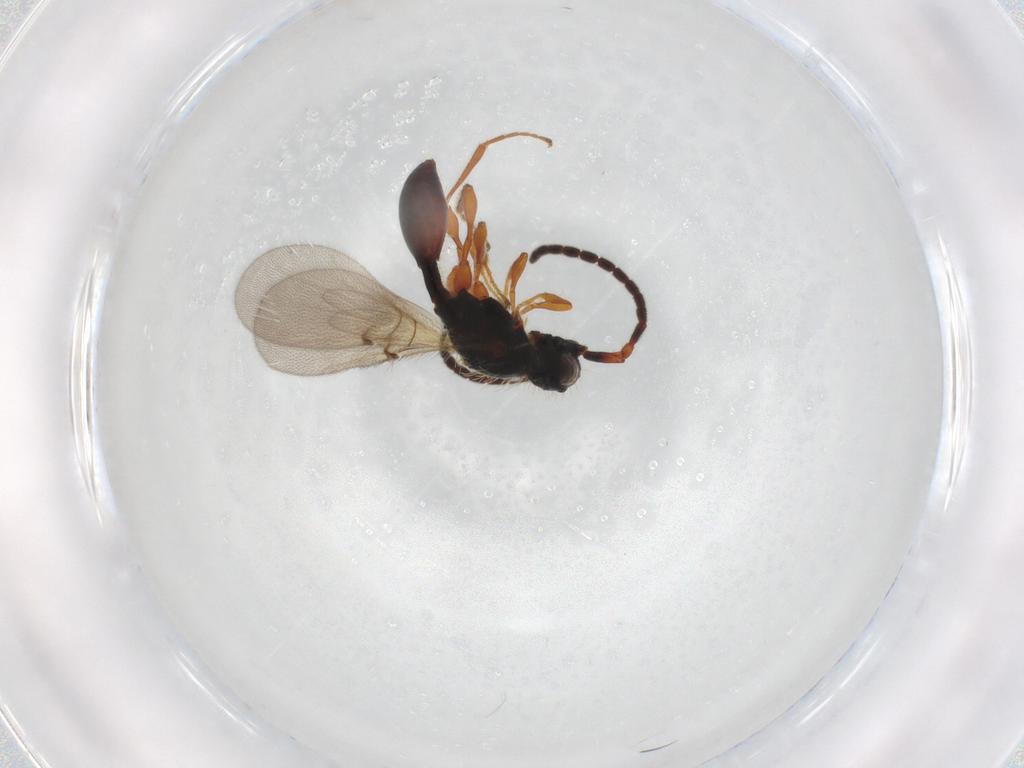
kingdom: Animalia
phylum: Arthropoda
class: Insecta
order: Hymenoptera
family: Diapriidae
